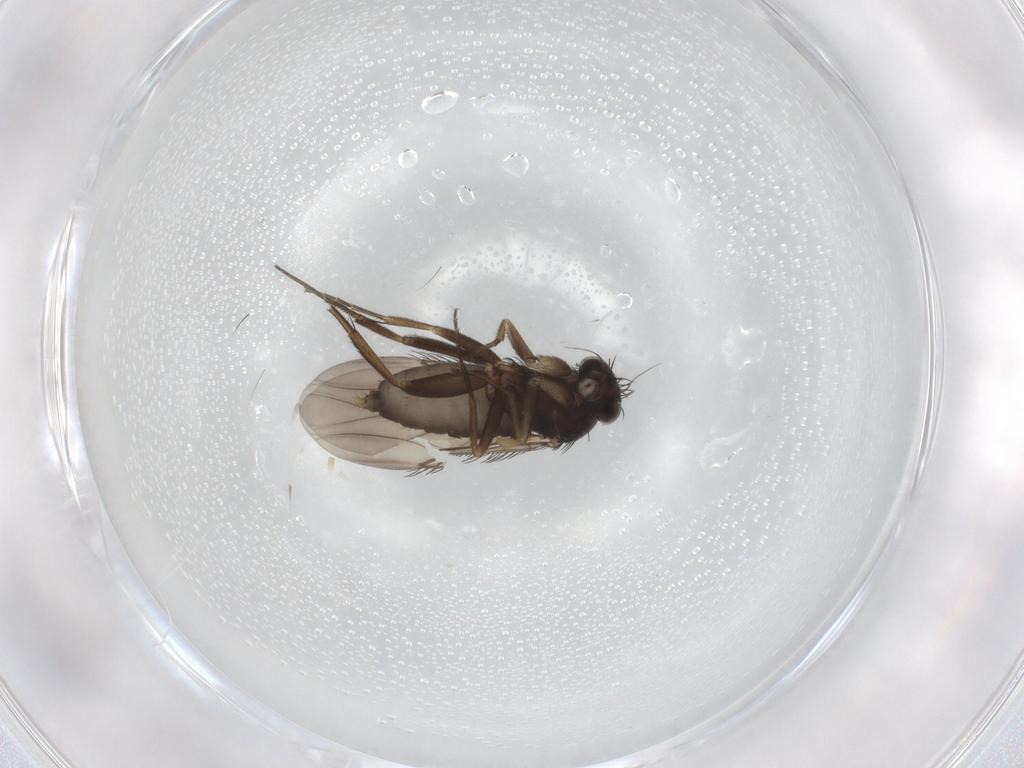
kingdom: Animalia
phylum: Arthropoda
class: Insecta
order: Diptera
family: Phoridae
